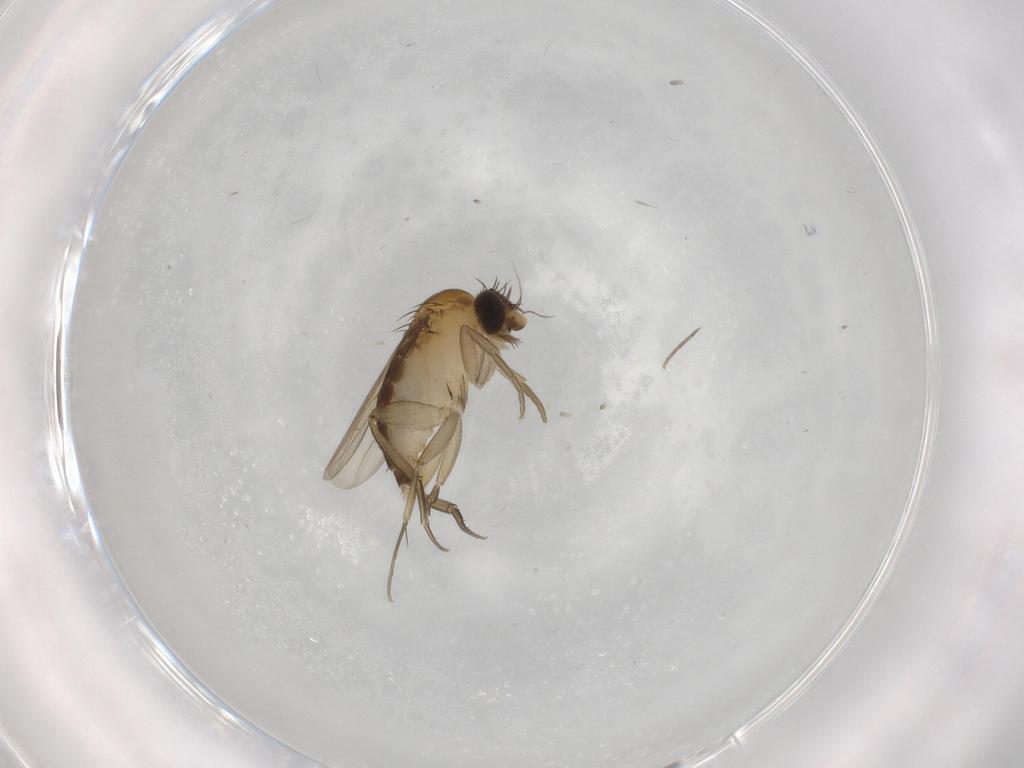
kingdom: Animalia
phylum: Arthropoda
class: Insecta
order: Diptera
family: Phoridae
